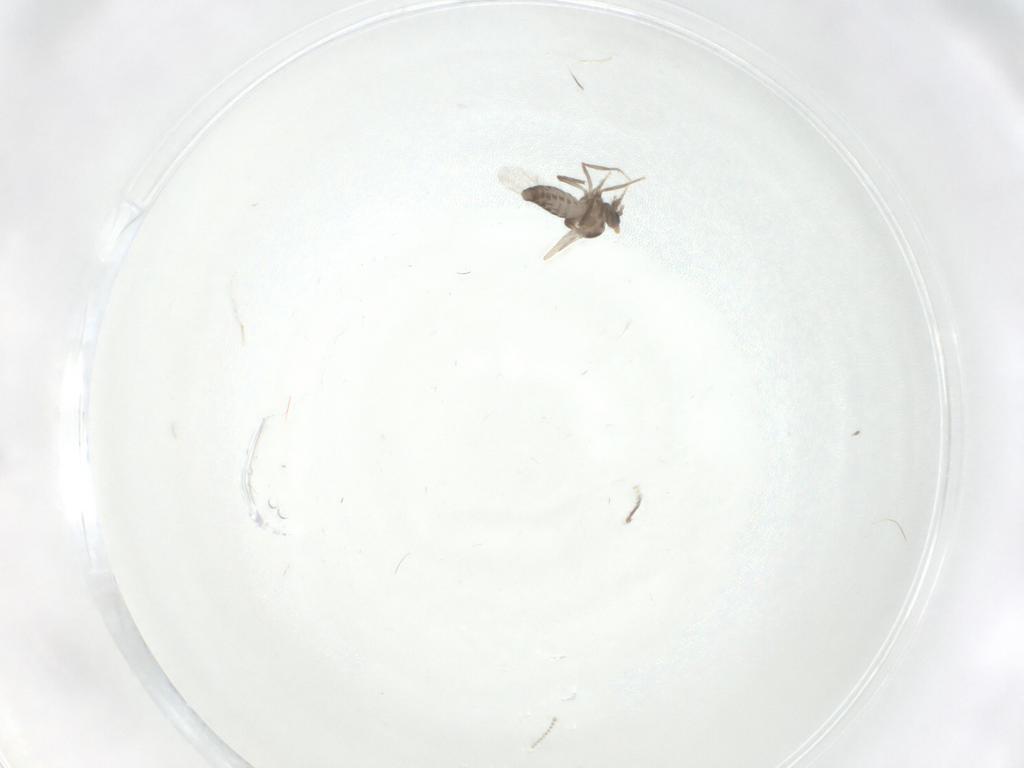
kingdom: Animalia
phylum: Arthropoda
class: Insecta
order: Diptera
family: Ceratopogonidae
